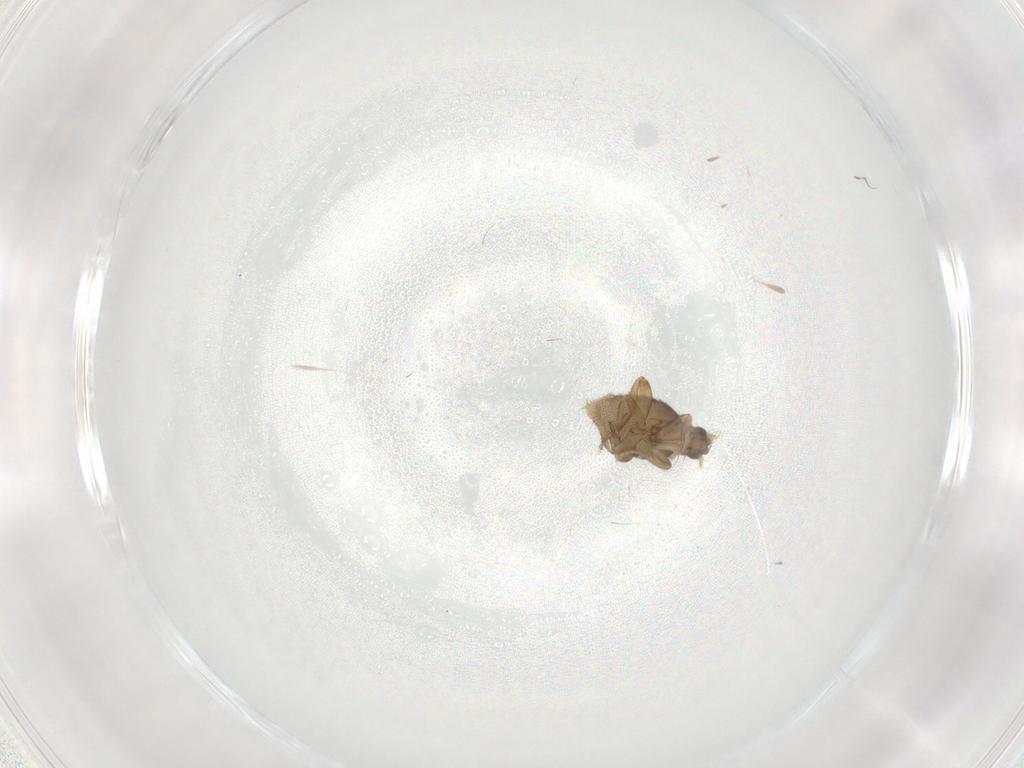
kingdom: Animalia
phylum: Arthropoda
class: Insecta
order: Diptera
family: Phoridae
